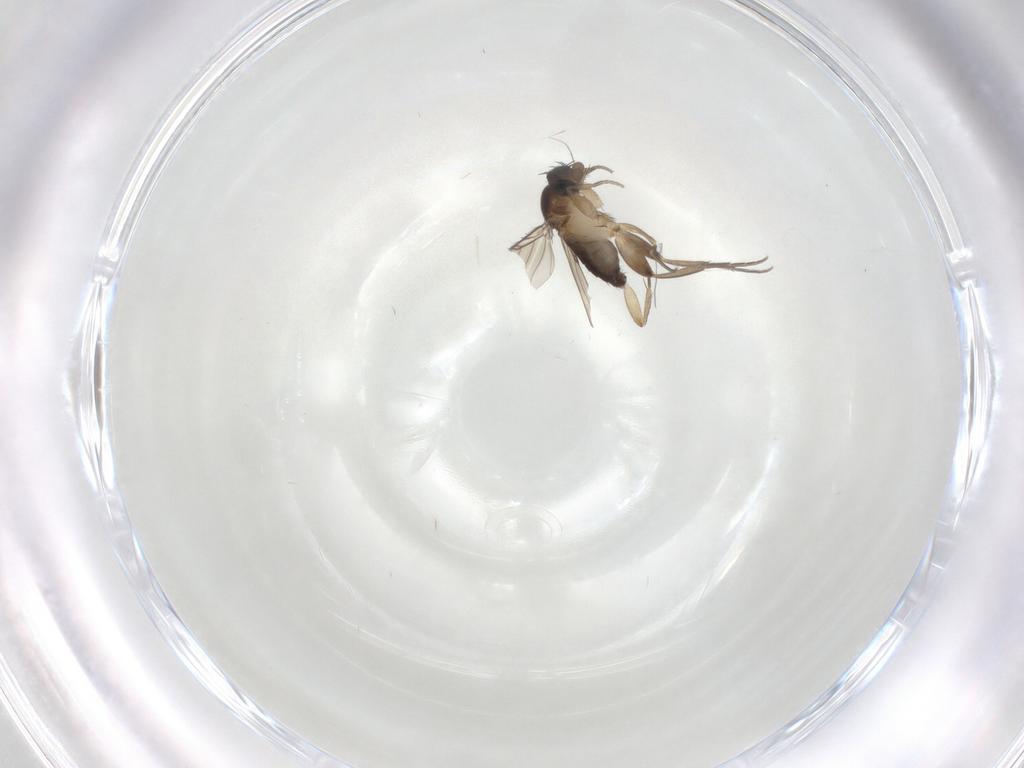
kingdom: Animalia
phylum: Arthropoda
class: Insecta
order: Diptera
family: Phoridae
